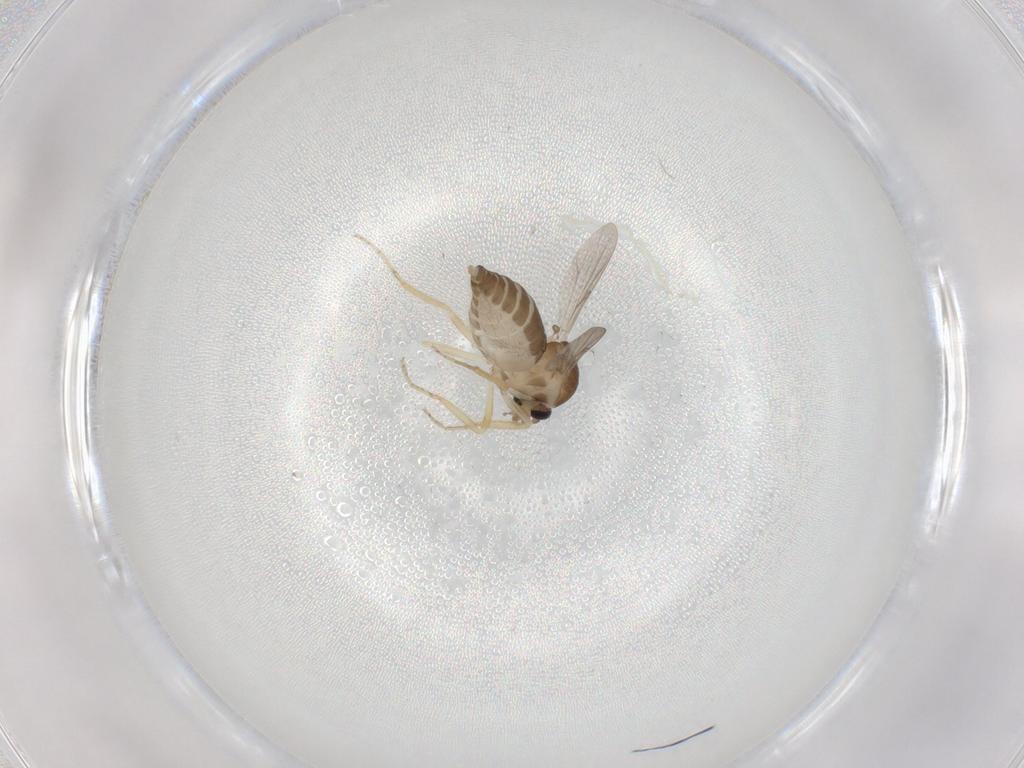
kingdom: Animalia
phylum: Arthropoda
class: Insecta
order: Diptera
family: Ceratopogonidae
